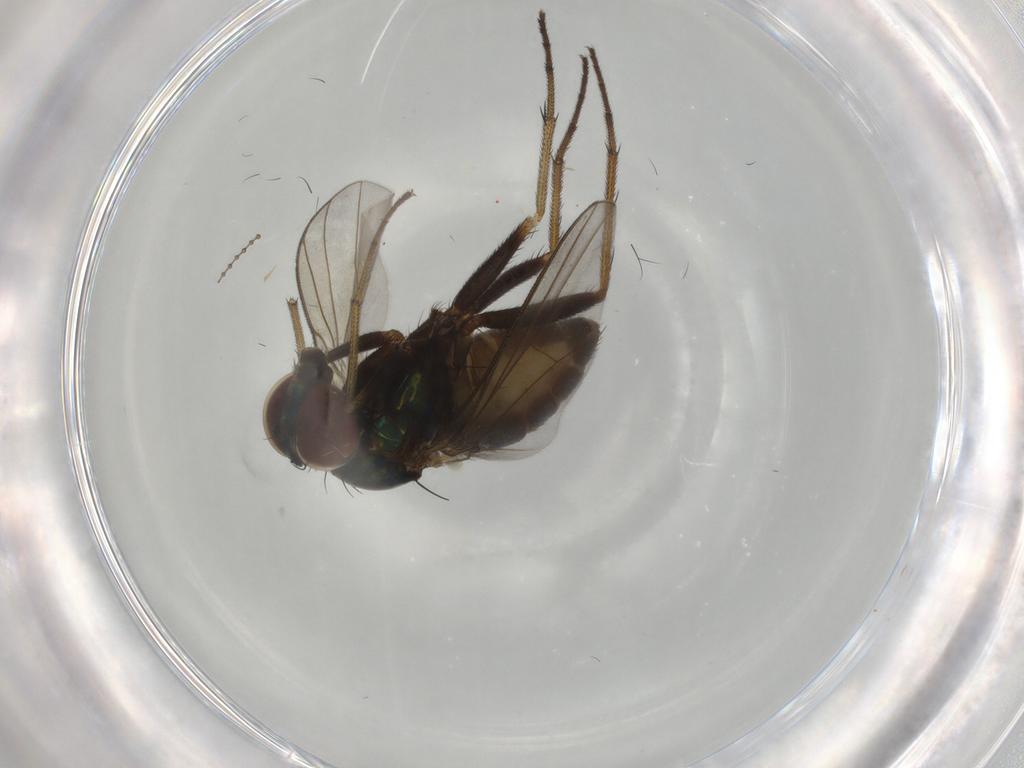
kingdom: Animalia
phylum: Arthropoda
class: Insecta
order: Diptera
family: Dolichopodidae
